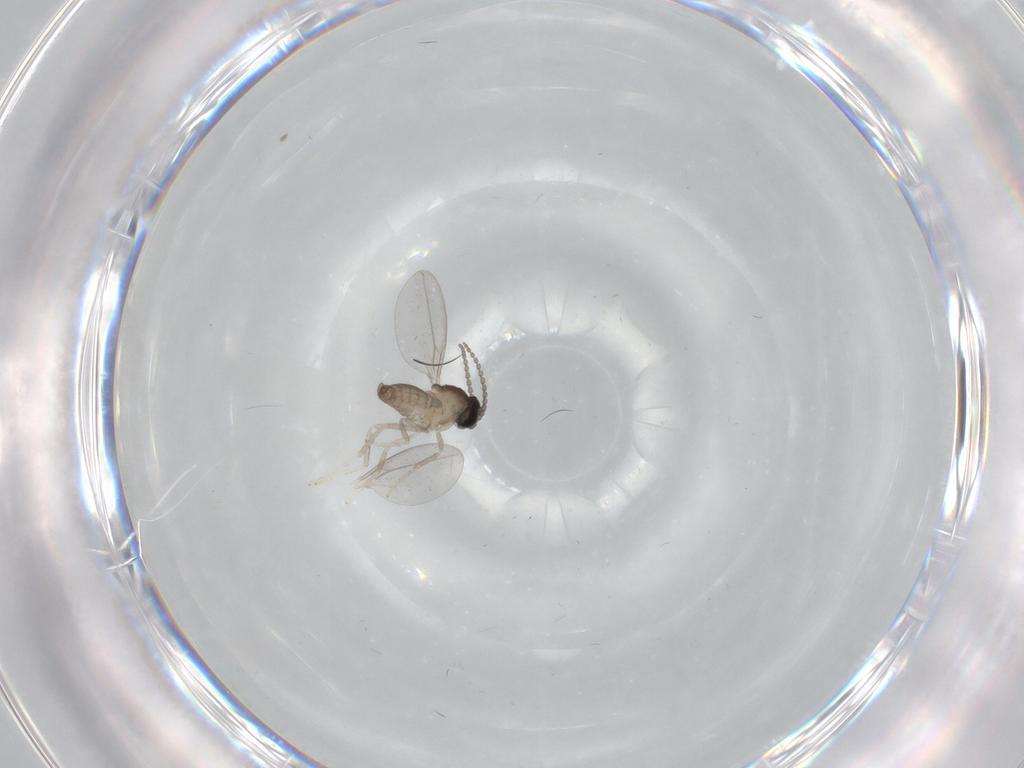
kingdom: Animalia
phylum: Arthropoda
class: Insecta
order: Diptera
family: Cecidomyiidae
